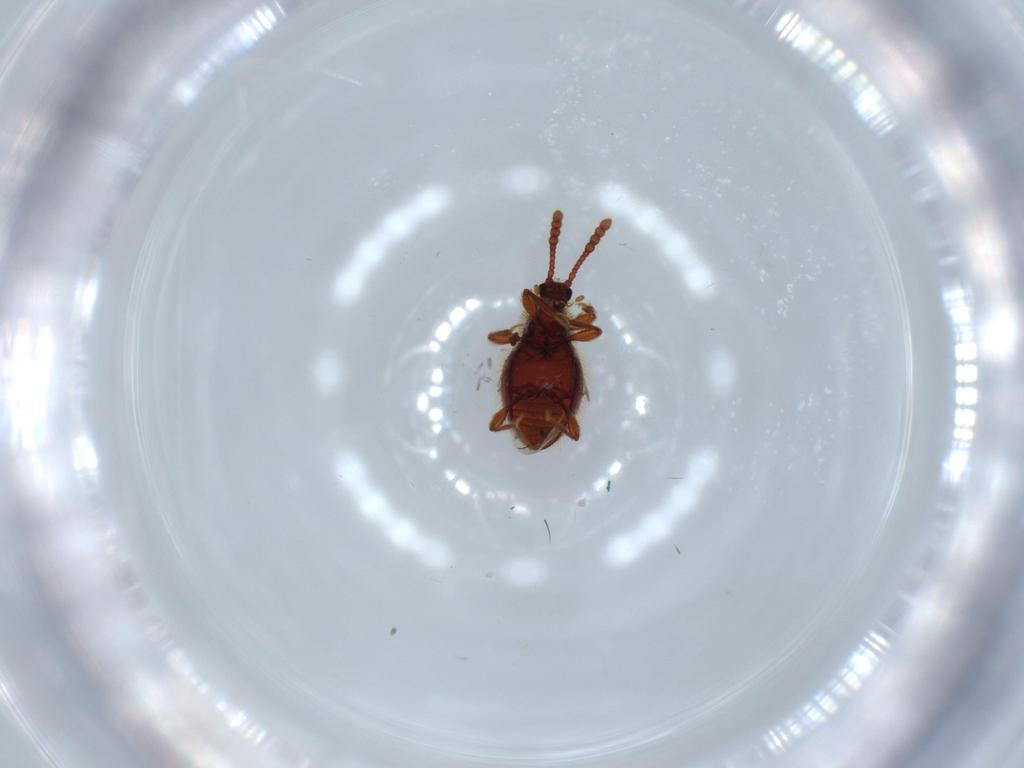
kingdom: Animalia
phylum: Arthropoda
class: Insecta
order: Coleoptera
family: Staphylinidae
